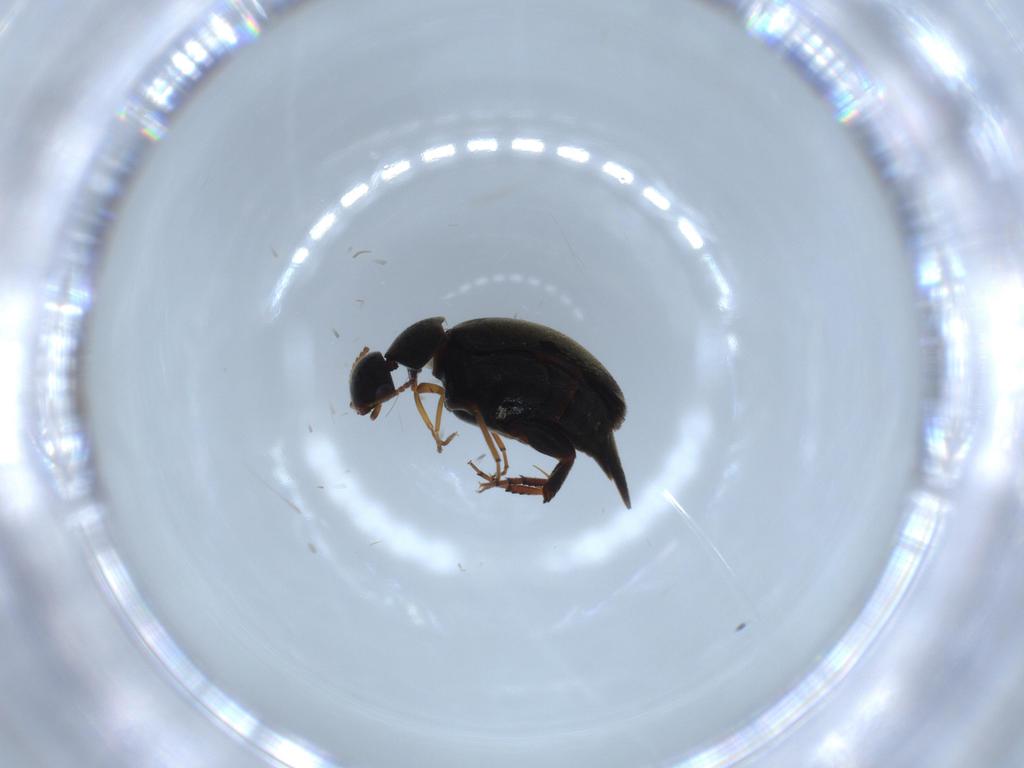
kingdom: Animalia
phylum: Arthropoda
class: Insecta
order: Coleoptera
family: Mordellidae
